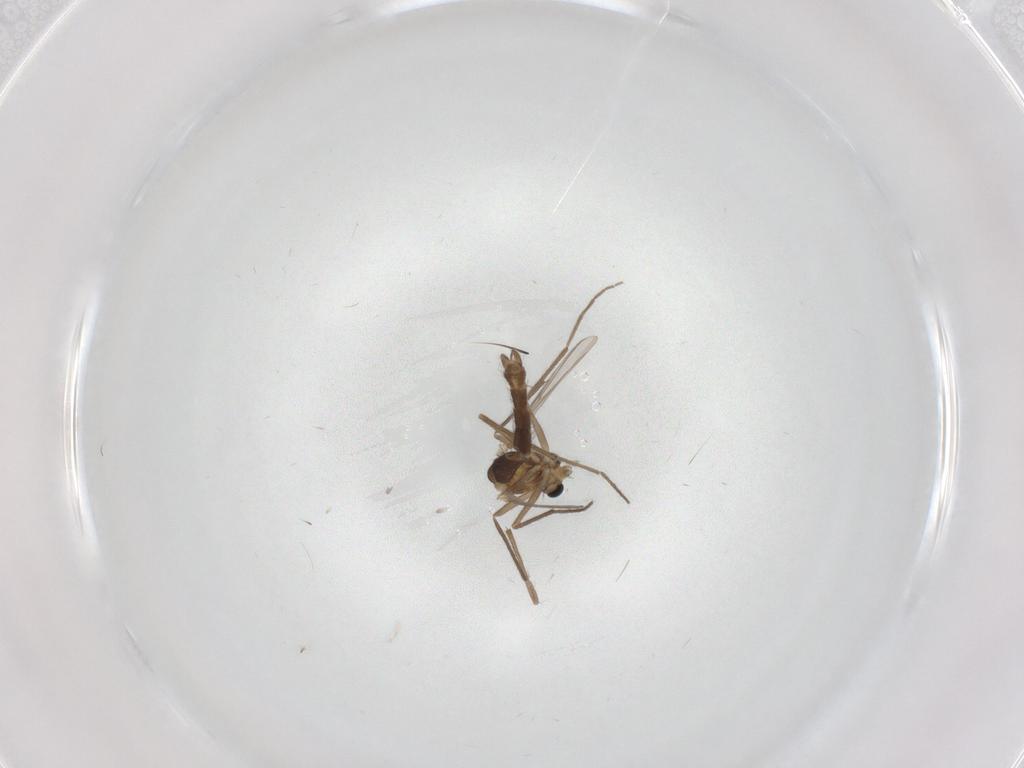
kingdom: Animalia
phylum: Arthropoda
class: Insecta
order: Diptera
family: Chironomidae
